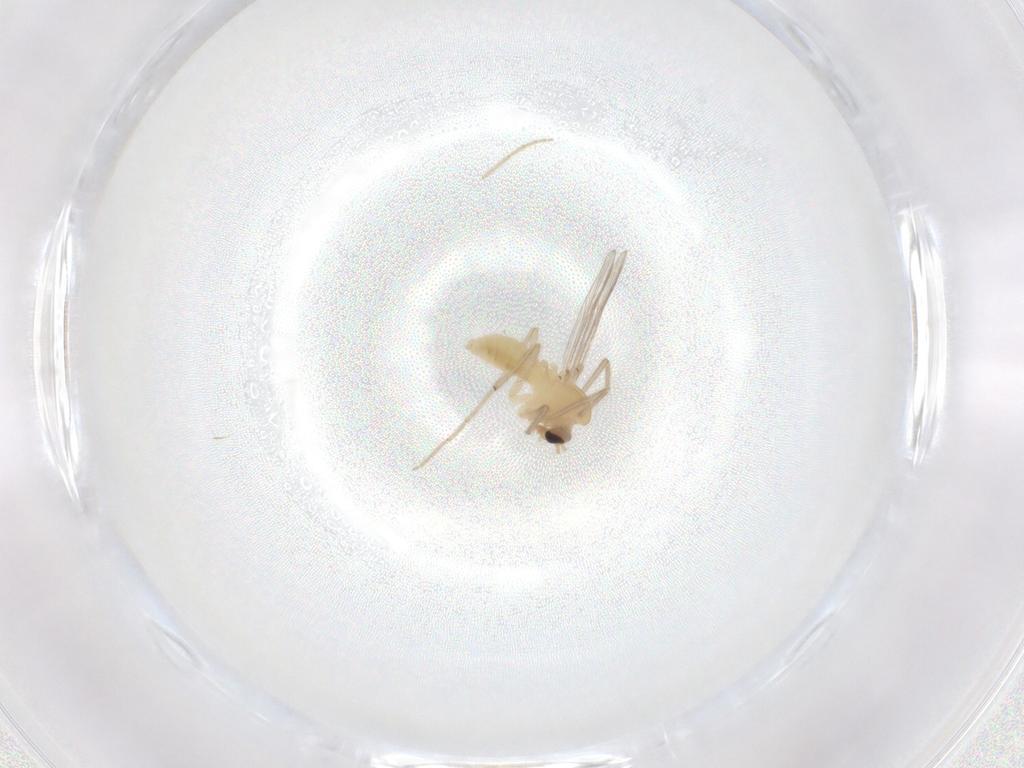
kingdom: Animalia
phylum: Arthropoda
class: Insecta
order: Diptera
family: Chironomidae
